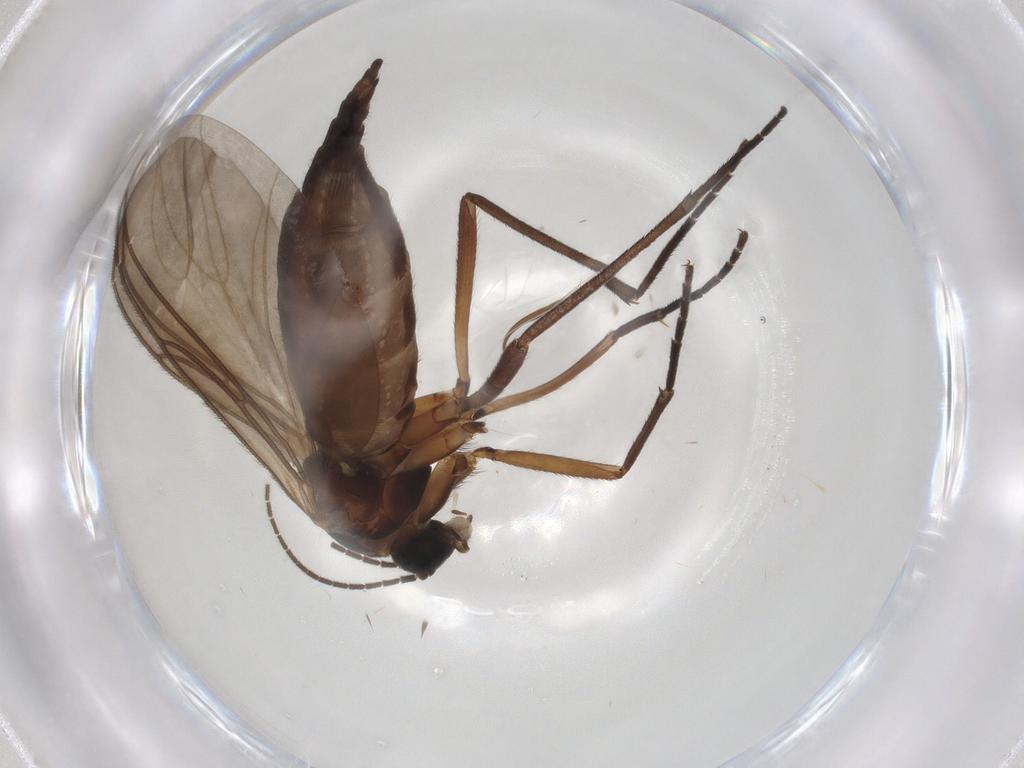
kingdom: Animalia
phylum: Arthropoda
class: Insecta
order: Diptera
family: Sciaridae
